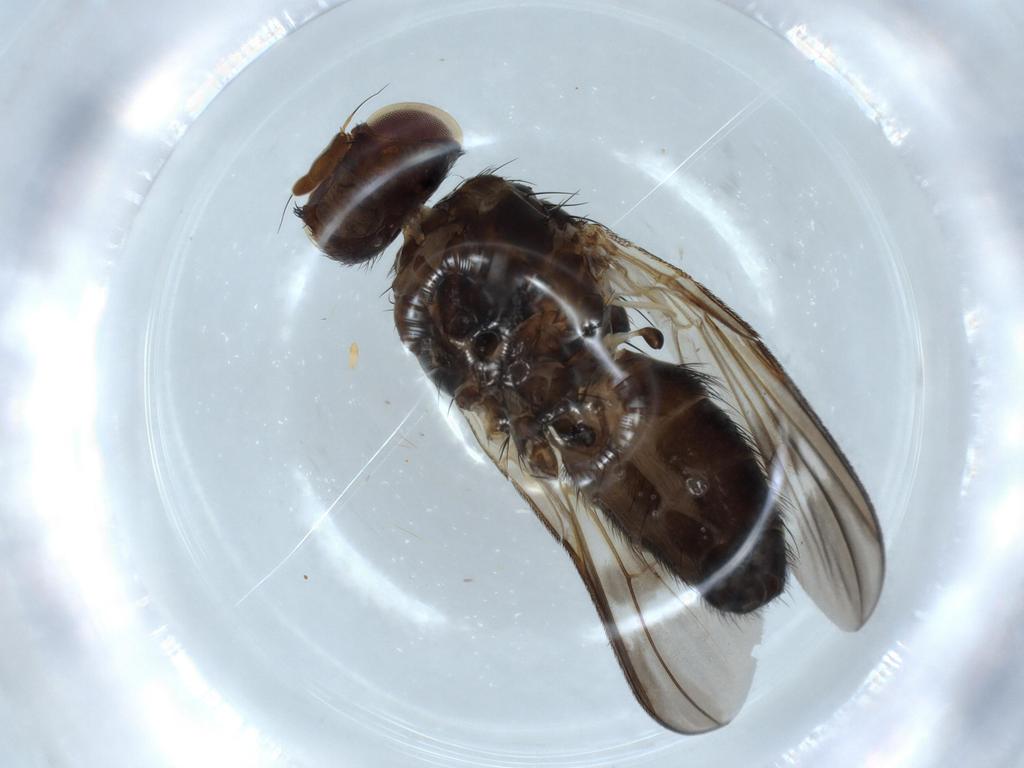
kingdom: Animalia
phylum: Arthropoda
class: Insecta
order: Diptera
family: Calliphoridae
